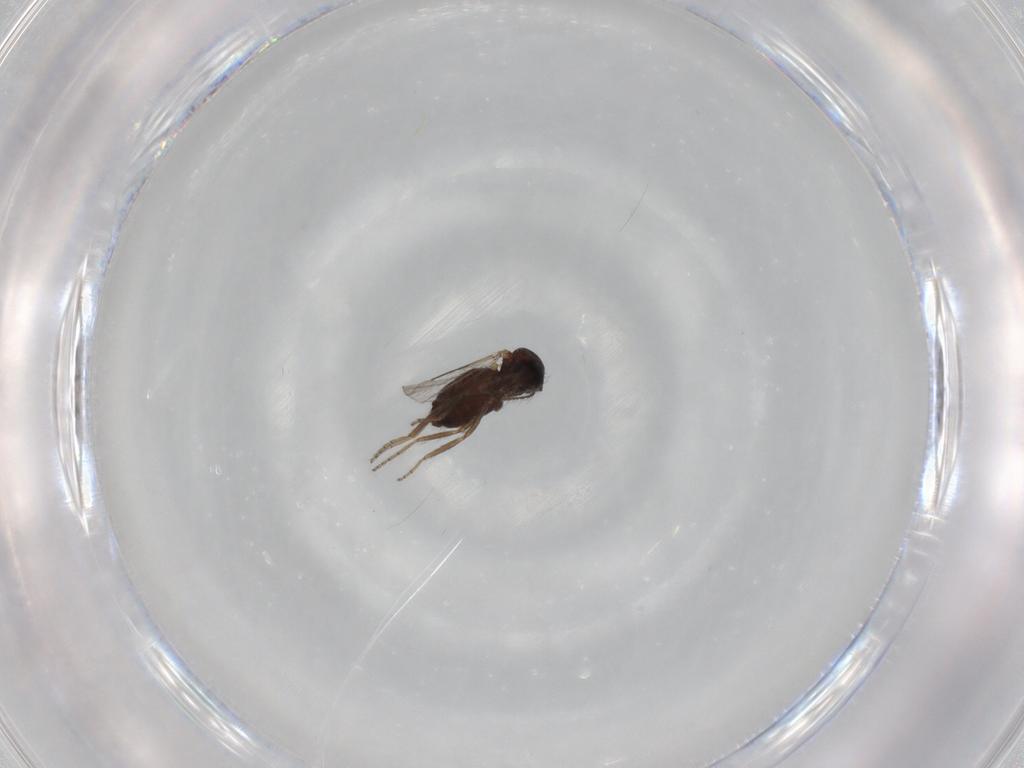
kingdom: Animalia
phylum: Arthropoda
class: Insecta
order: Diptera
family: Ceratopogonidae
